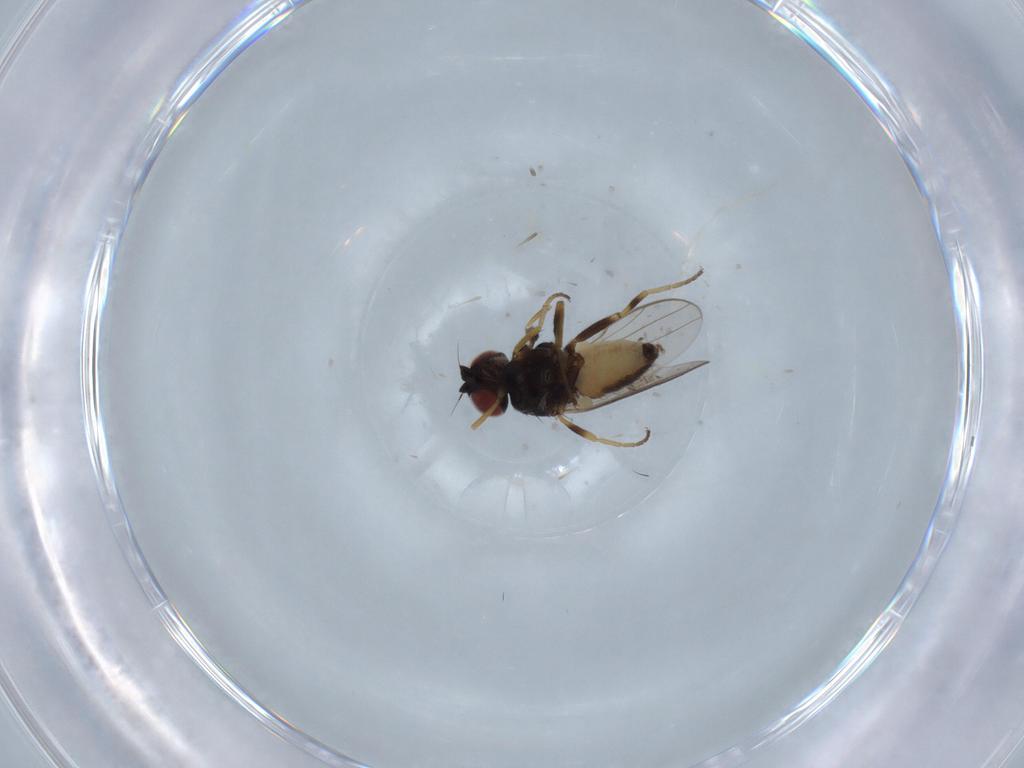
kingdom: Animalia
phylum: Arthropoda
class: Insecta
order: Diptera
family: Chloropidae
